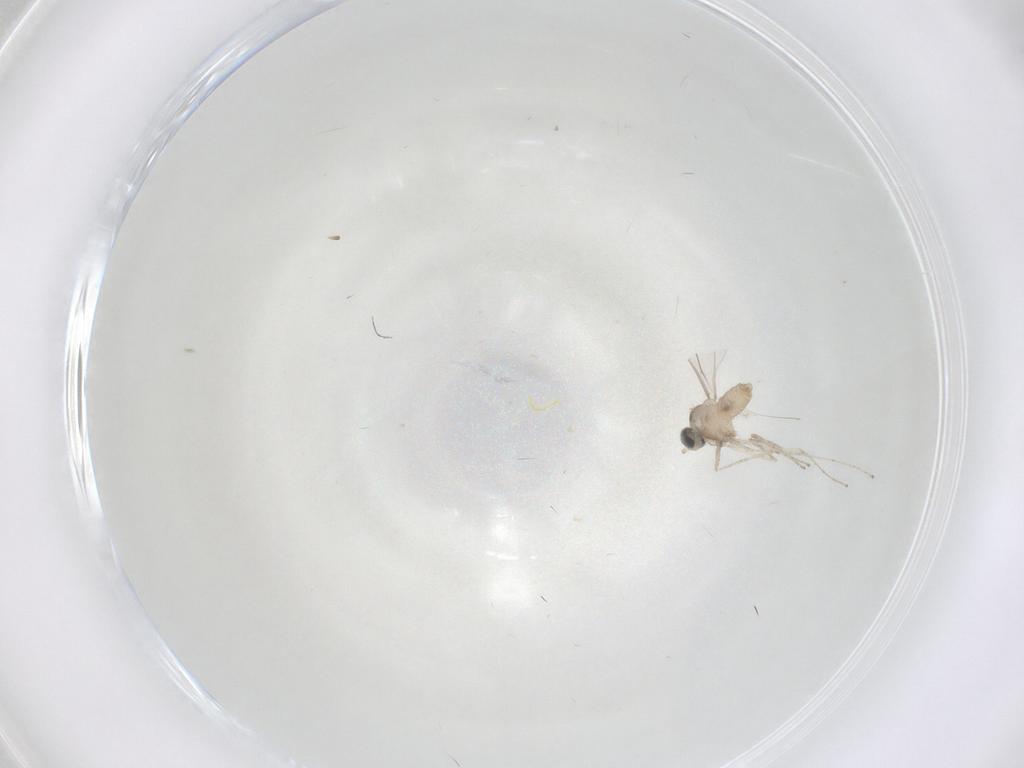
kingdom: Animalia
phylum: Arthropoda
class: Insecta
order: Diptera
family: Cecidomyiidae
